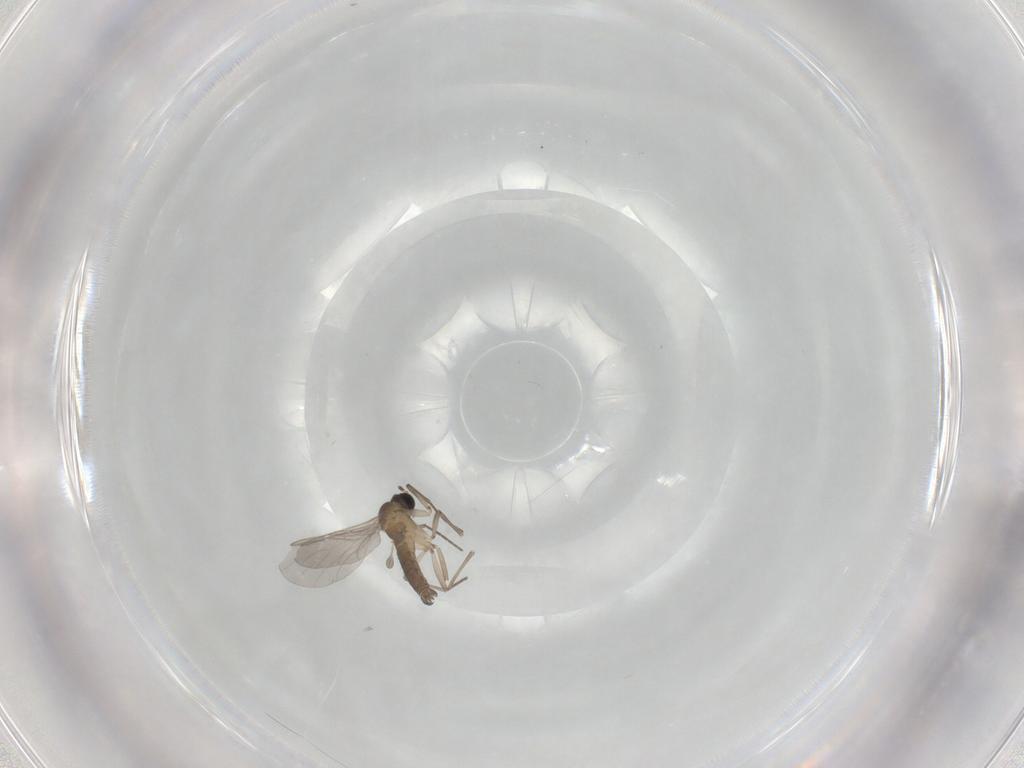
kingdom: Animalia
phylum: Arthropoda
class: Insecta
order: Diptera
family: Sciaridae
